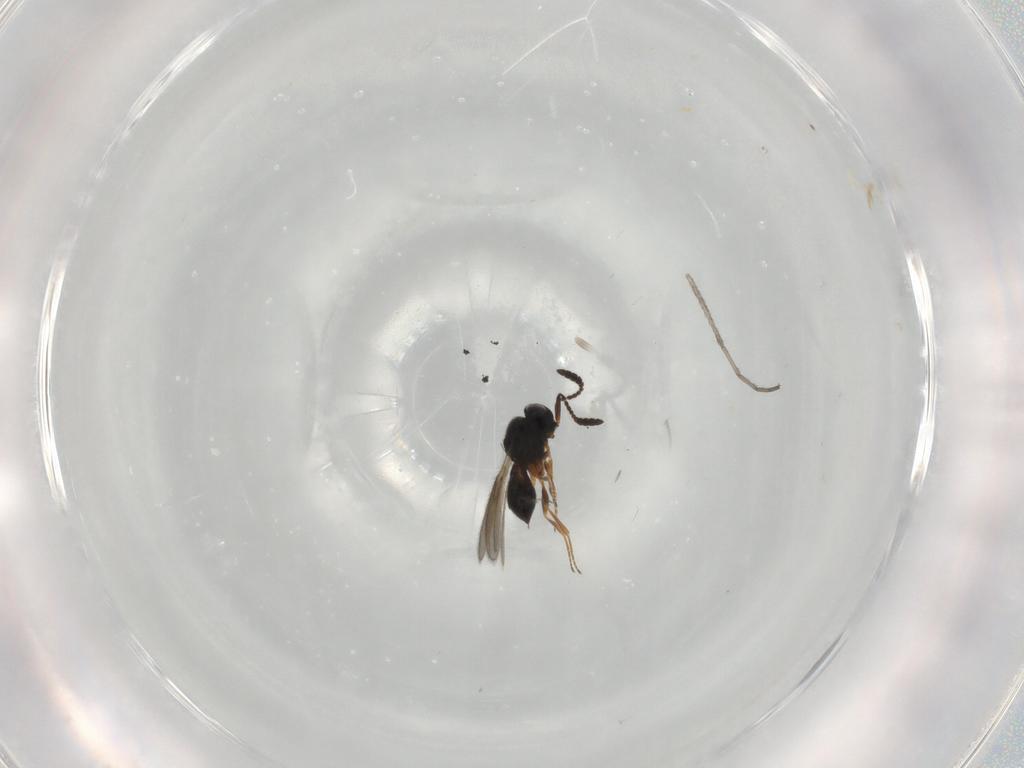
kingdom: Animalia
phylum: Arthropoda
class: Insecta
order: Hymenoptera
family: Scelionidae
